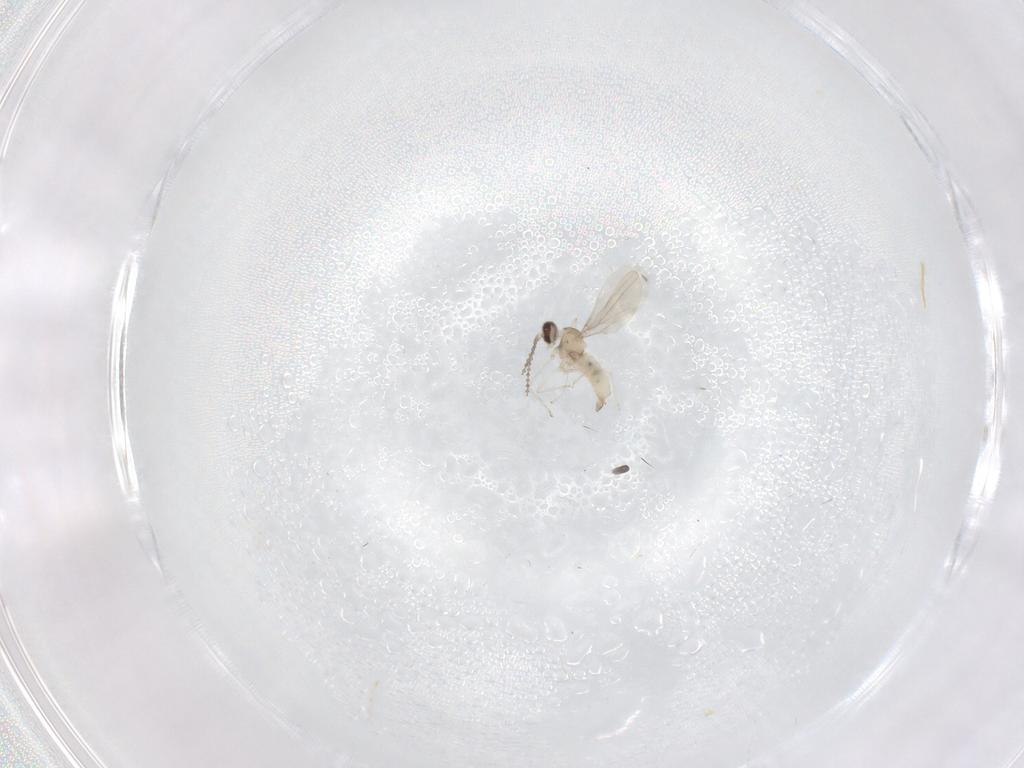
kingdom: Animalia
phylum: Arthropoda
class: Insecta
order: Diptera
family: Cecidomyiidae
